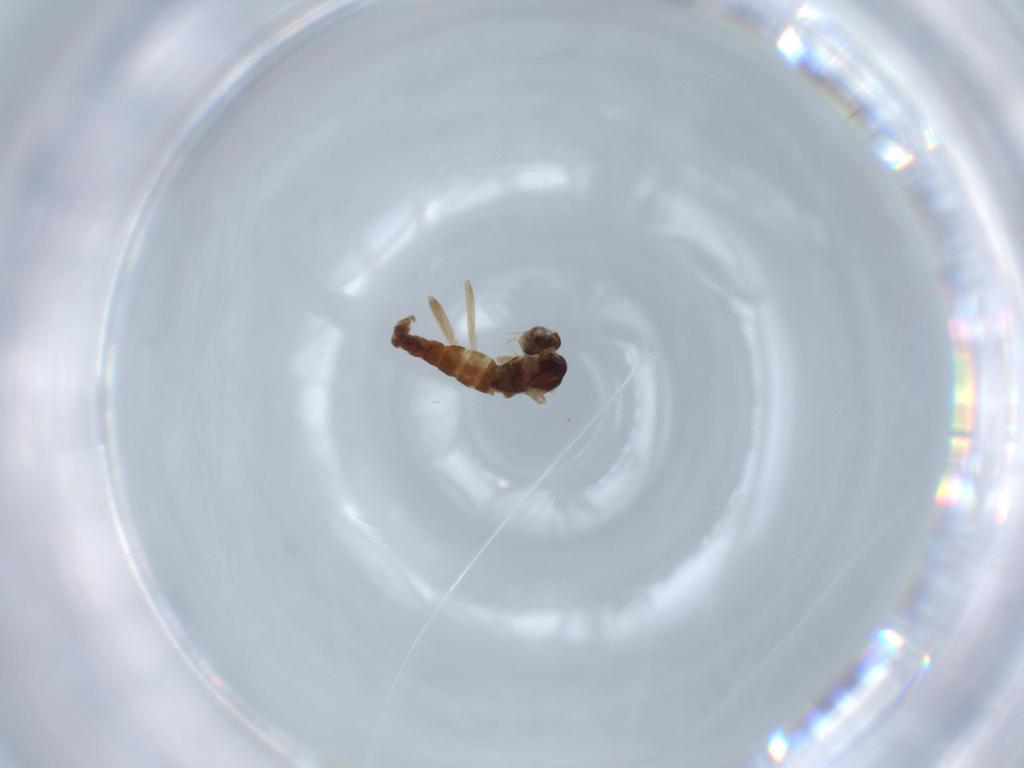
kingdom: Animalia
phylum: Arthropoda
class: Insecta
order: Diptera
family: Cecidomyiidae
